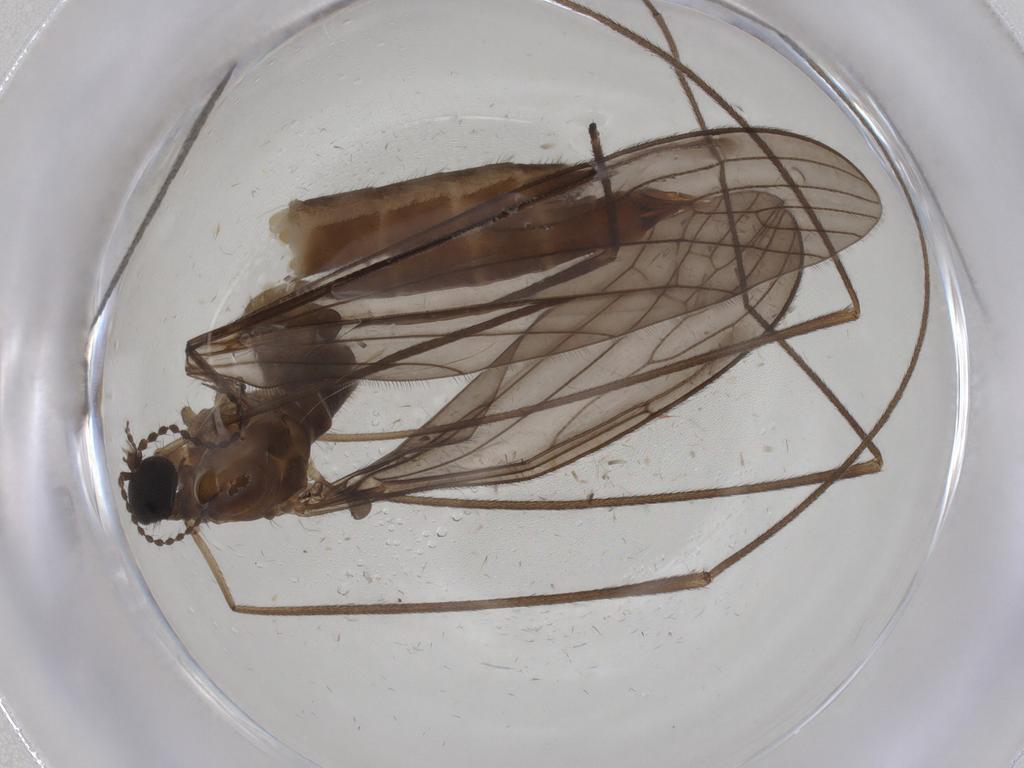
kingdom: Animalia
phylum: Arthropoda
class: Insecta
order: Diptera
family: Limoniidae
